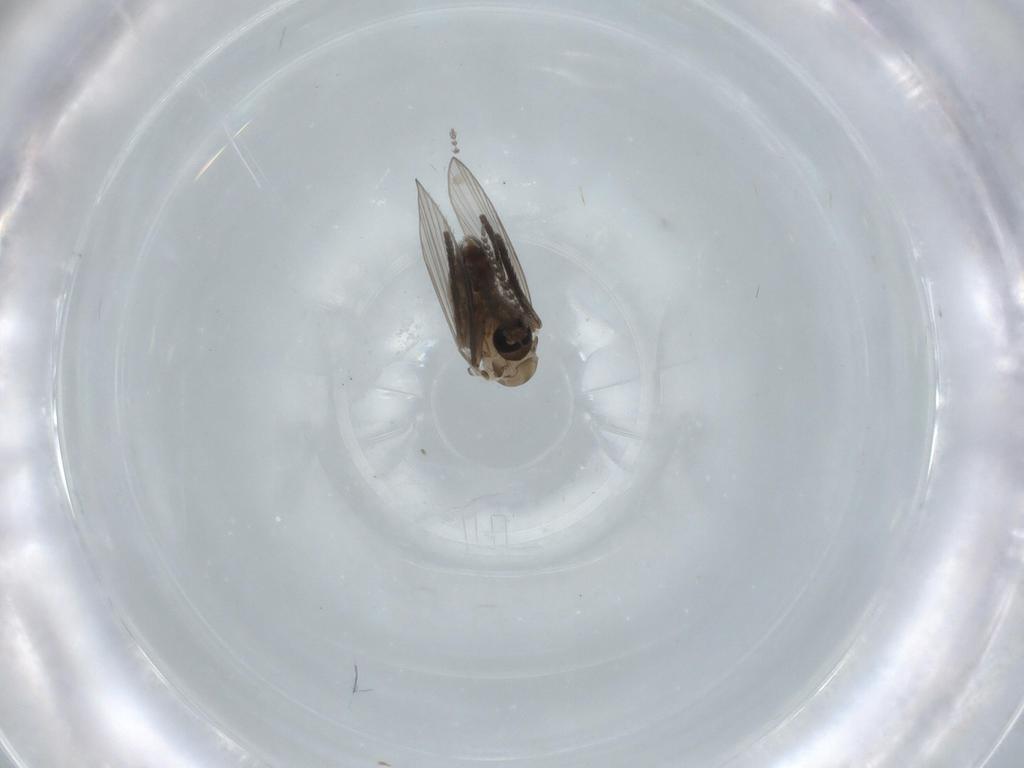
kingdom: Animalia
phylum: Arthropoda
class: Insecta
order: Diptera
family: Psychodidae
